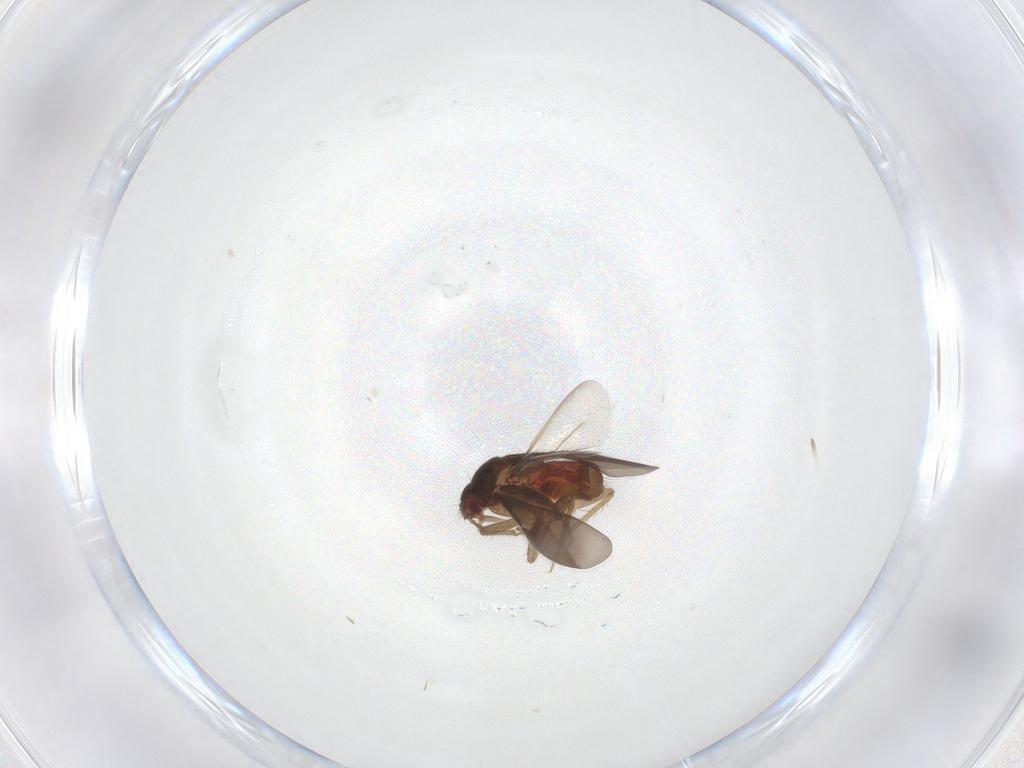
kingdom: Animalia
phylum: Arthropoda
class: Insecta
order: Hemiptera
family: Ceratocombidae
